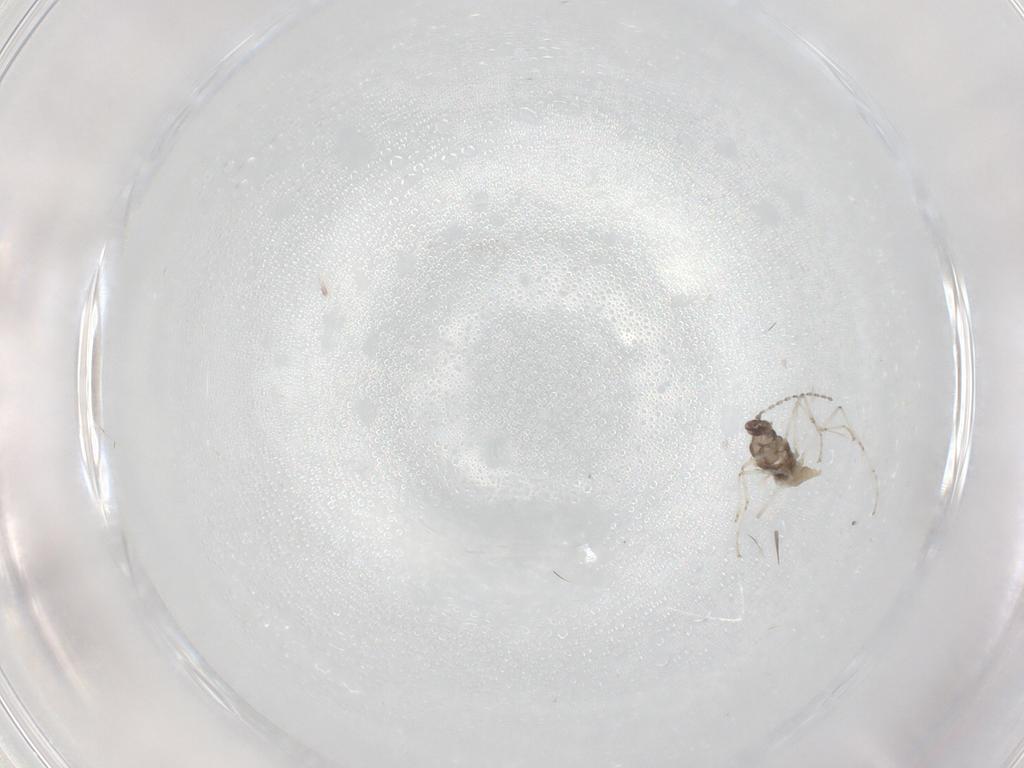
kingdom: Animalia
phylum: Arthropoda
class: Insecta
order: Diptera
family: Cecidomyiidae
